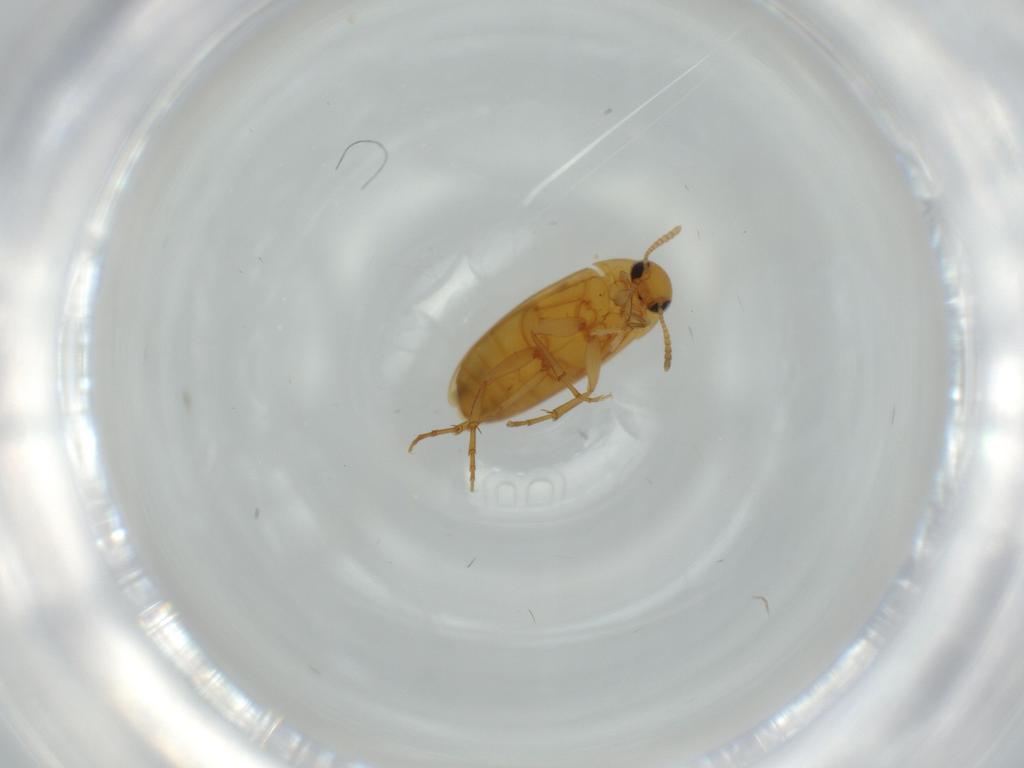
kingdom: Animalia
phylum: Arthropoda
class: Insecta
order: Coleoptera
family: Scraptiidae
